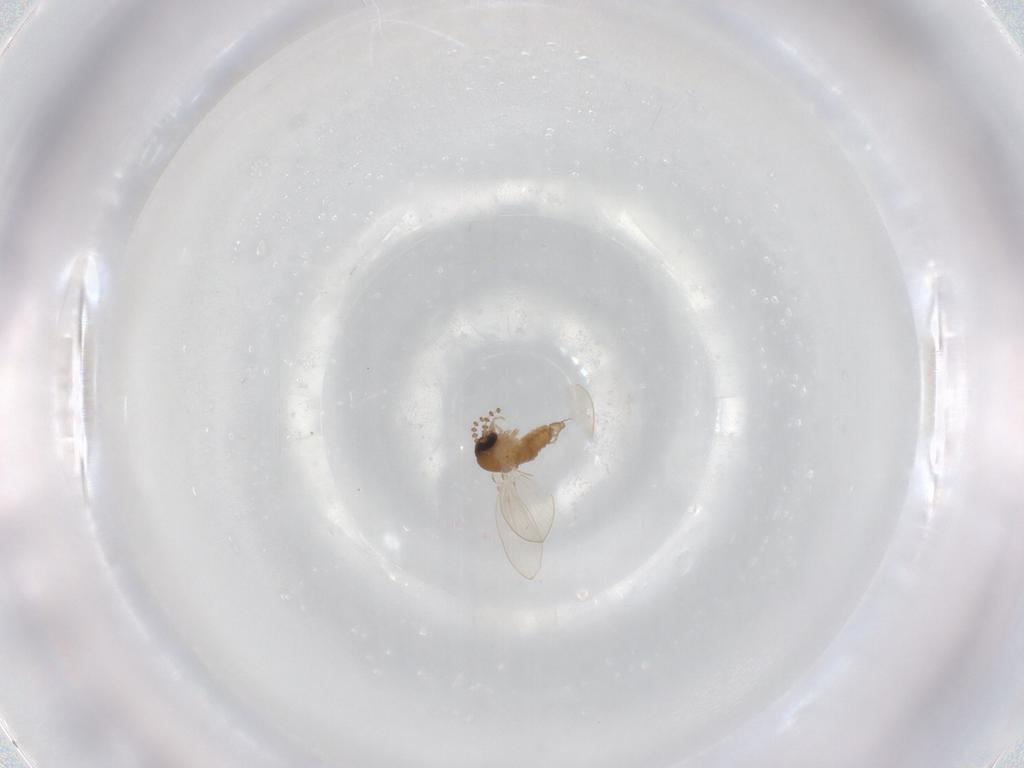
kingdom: Animalia
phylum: Arthropoda
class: Insecta
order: Diptera
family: Psychodidae
